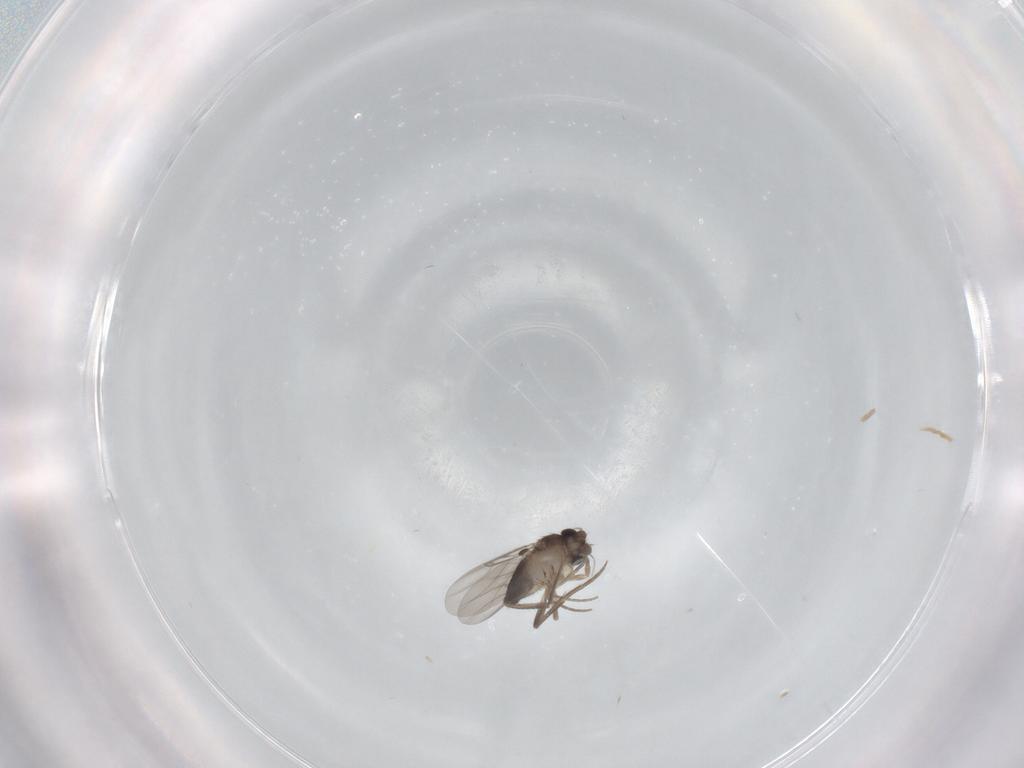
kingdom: Animalia
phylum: Arthropoda
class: Insecta
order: Diptera
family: Phoridae
